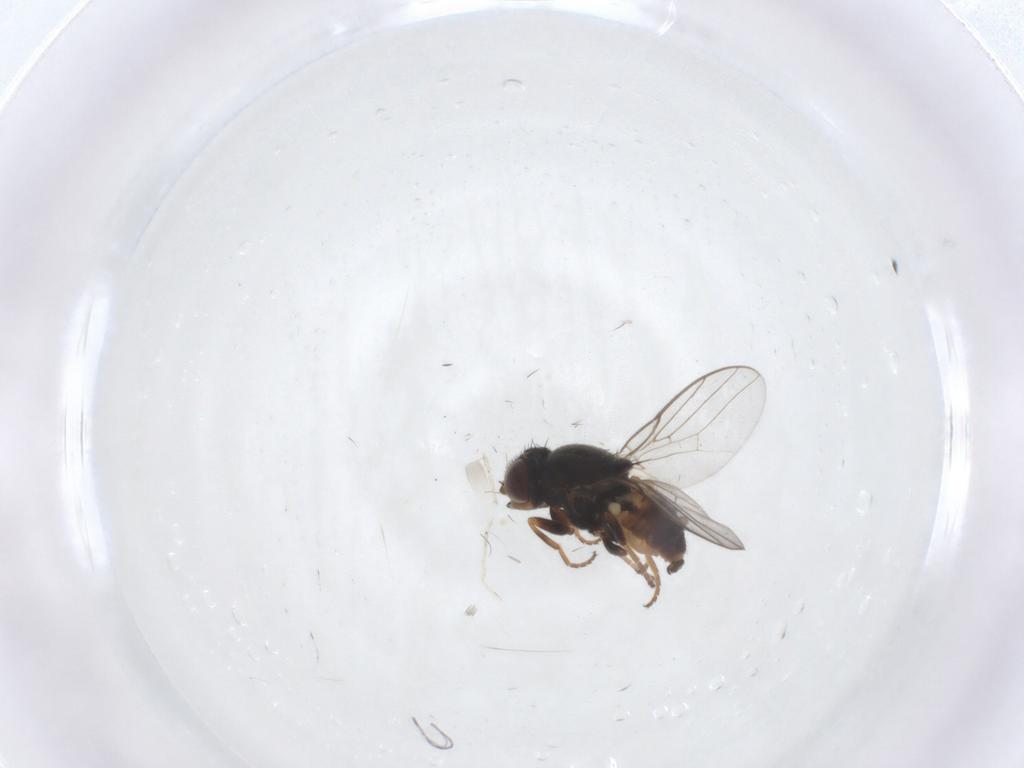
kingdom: Animalia
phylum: Arthropoda
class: Insecta
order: Diptera
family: Chloropidae
